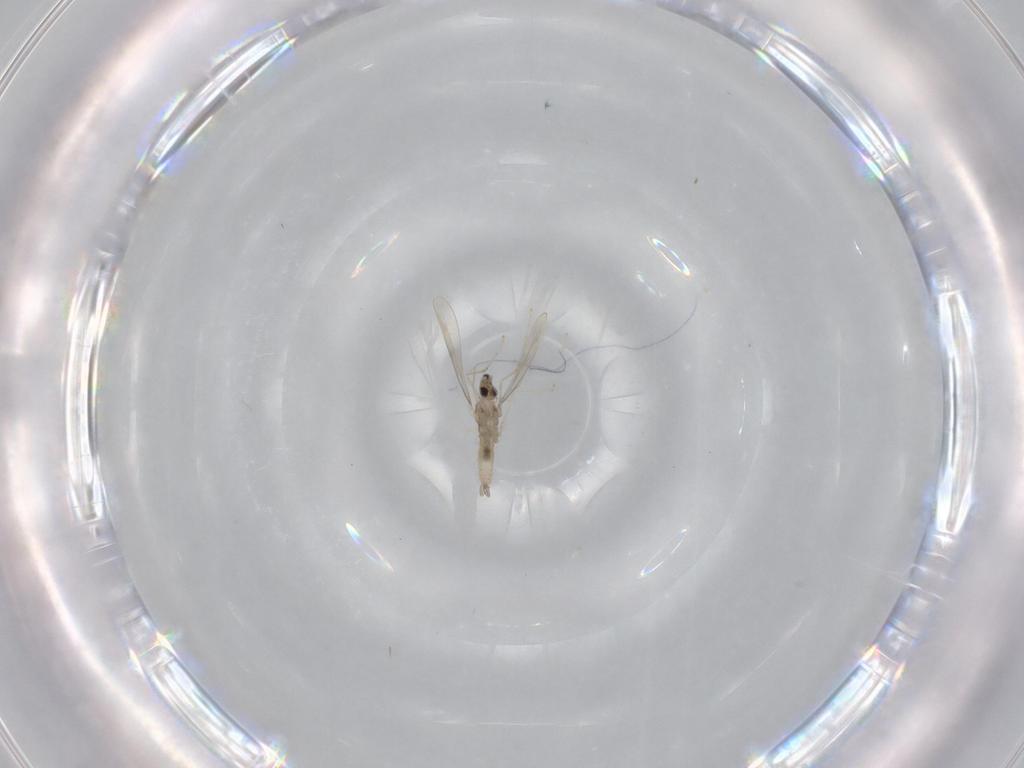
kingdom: Animalia
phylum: Arthropoda
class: Insecta
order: Diptera
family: Cecidomyiidae
